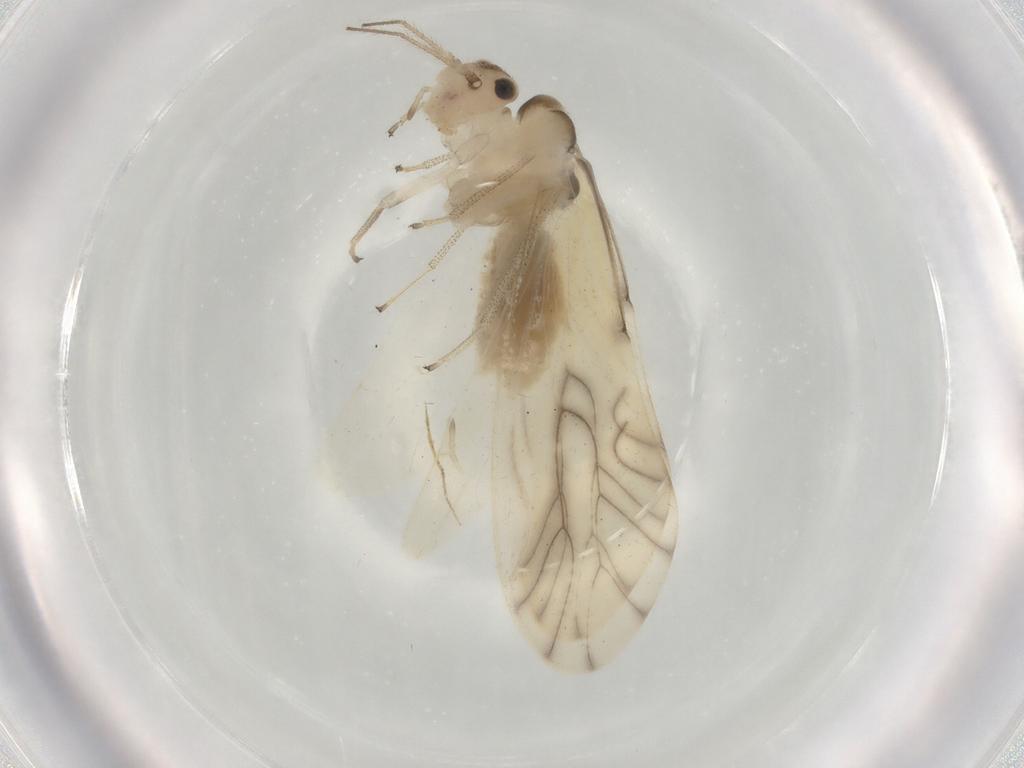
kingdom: Animalia
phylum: Arthropoda
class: Insecta
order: Psocodea
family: Caeciliusidae
